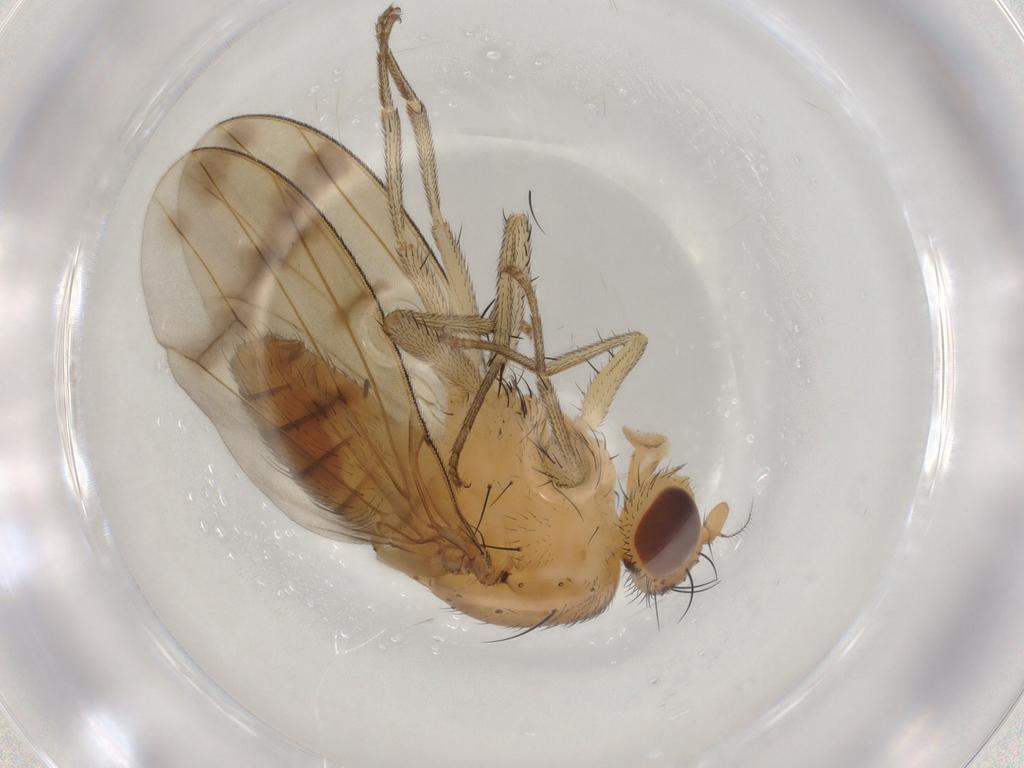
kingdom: Animalia
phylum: Arthropoda
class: Insecta
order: Diptera
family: Lauxaniidae
